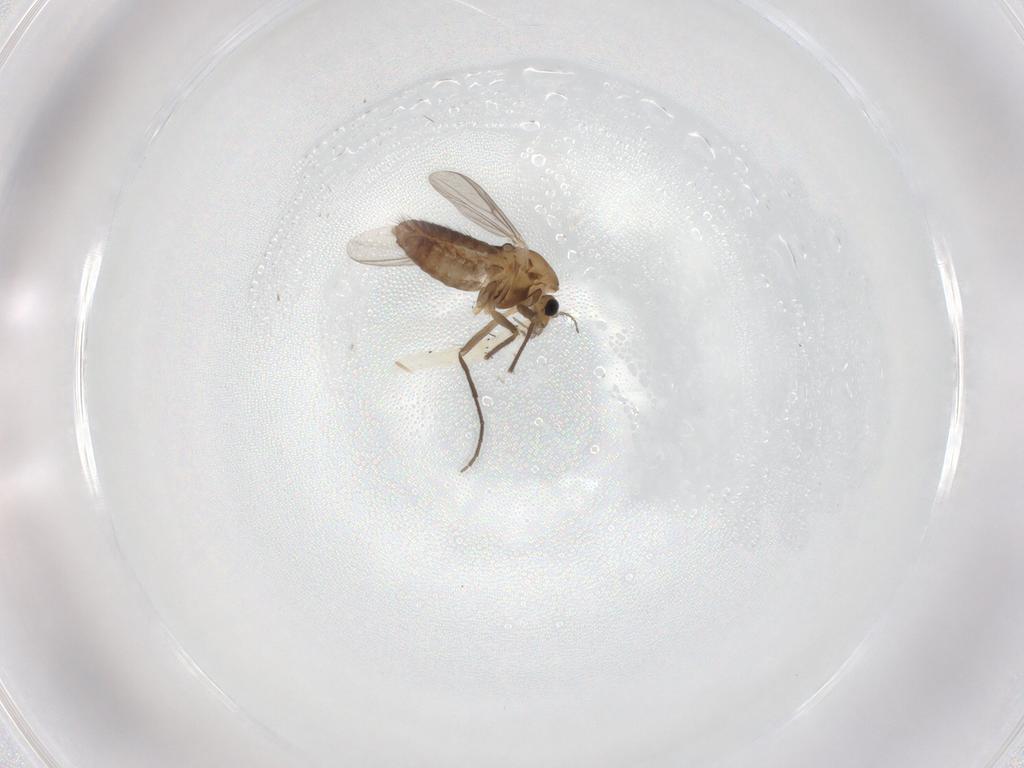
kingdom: Animalia
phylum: Arthropoda
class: Insecta
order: Diptera
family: Chironomidae
